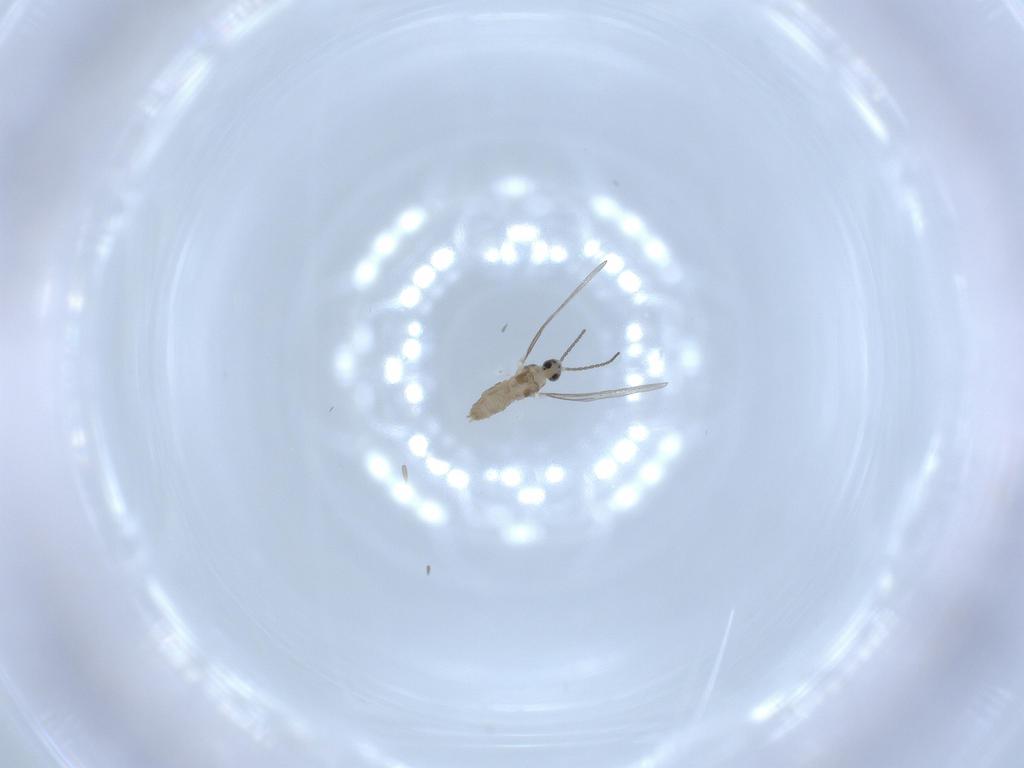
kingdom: Animalia
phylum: Arthropoda
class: Insecta
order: Diptera
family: Cecidomyiidae
